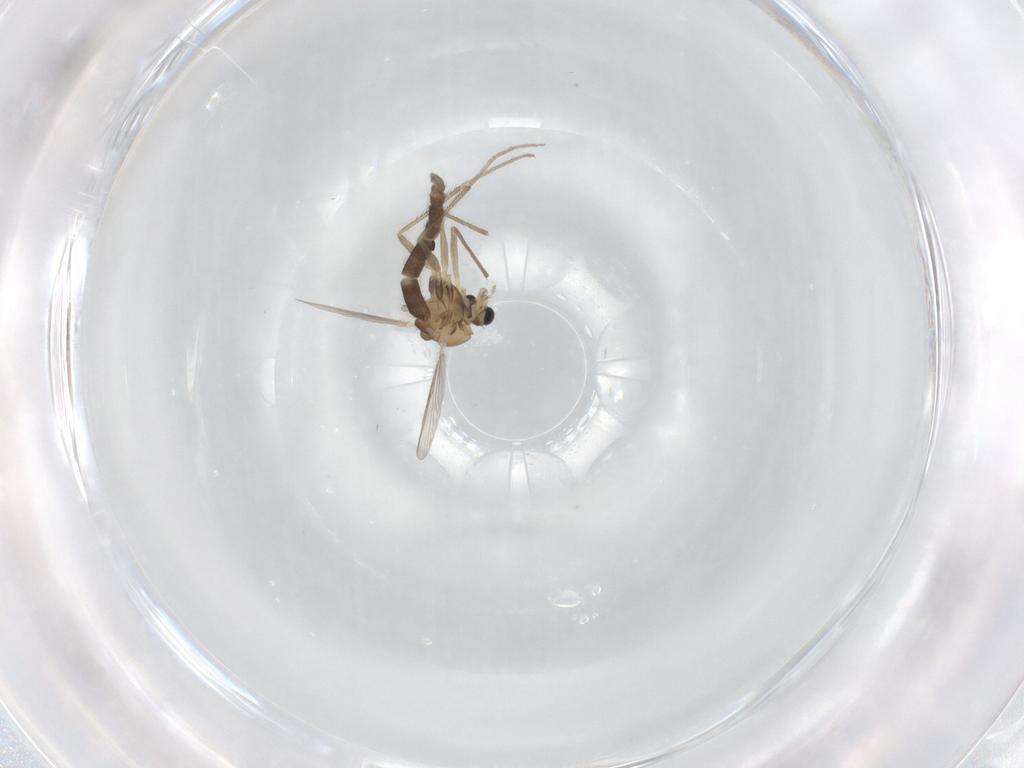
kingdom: Animalia
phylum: Arthropoda
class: Insecta
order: Diptera
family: Chironomidae
